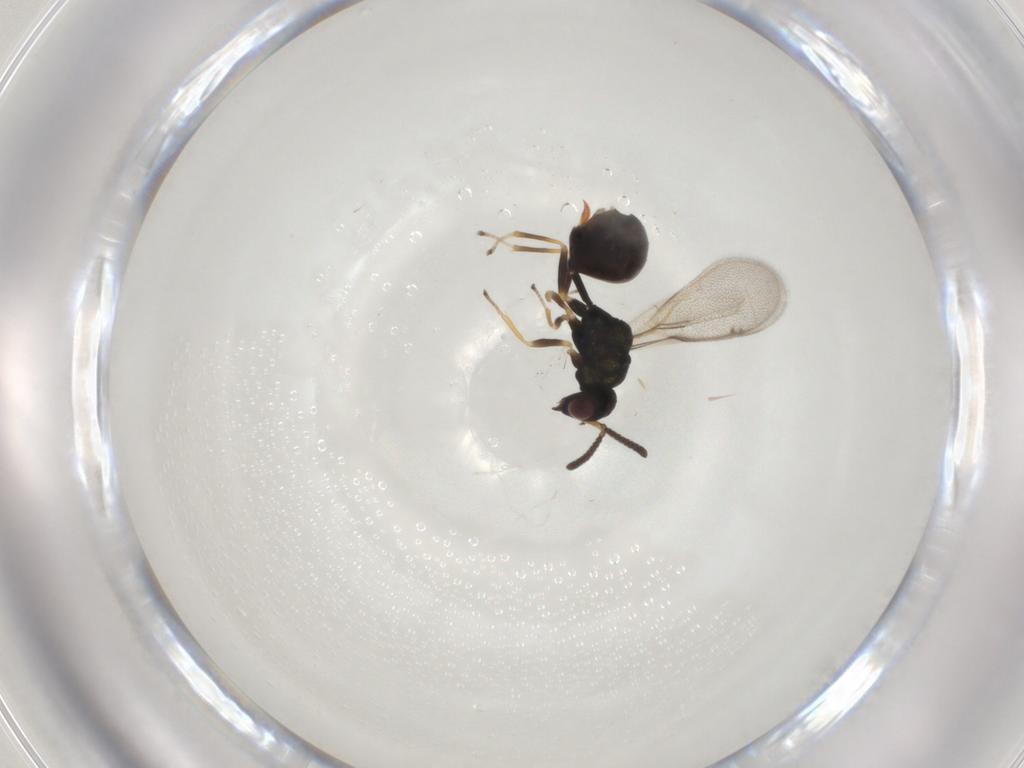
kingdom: Animalia
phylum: Arthropoda
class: Insecta
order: Hymenoptera
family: Eucharitidae
